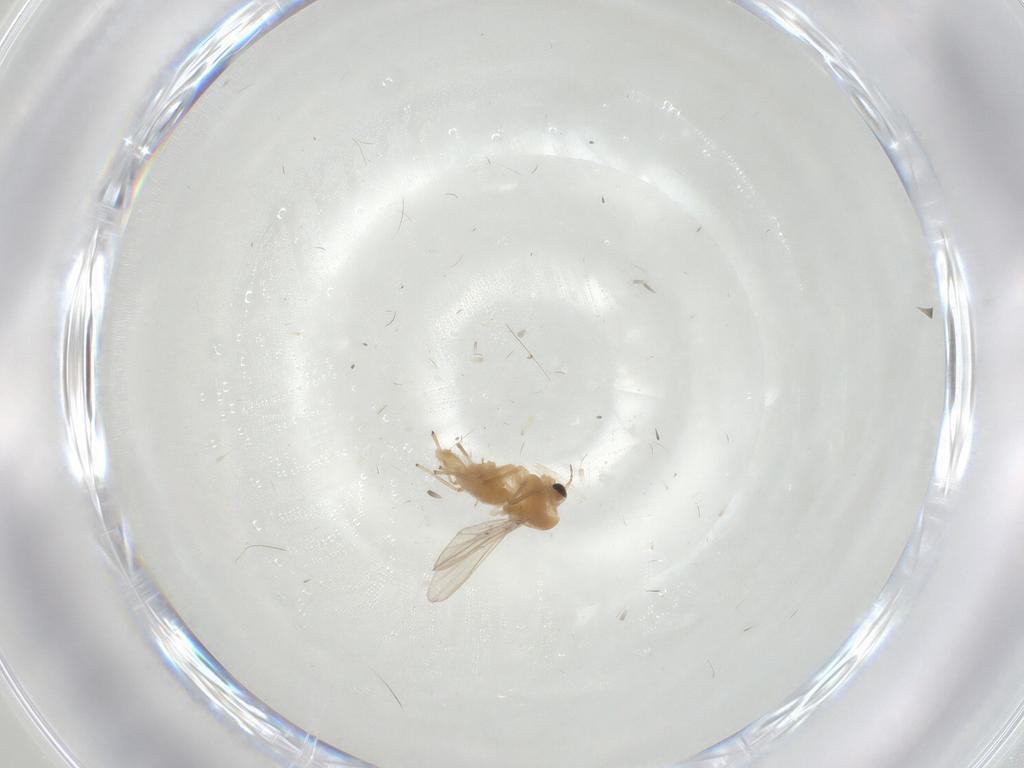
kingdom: Animalia
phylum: Arthropoda
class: Insecta
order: Diptera
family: Chironomidae
